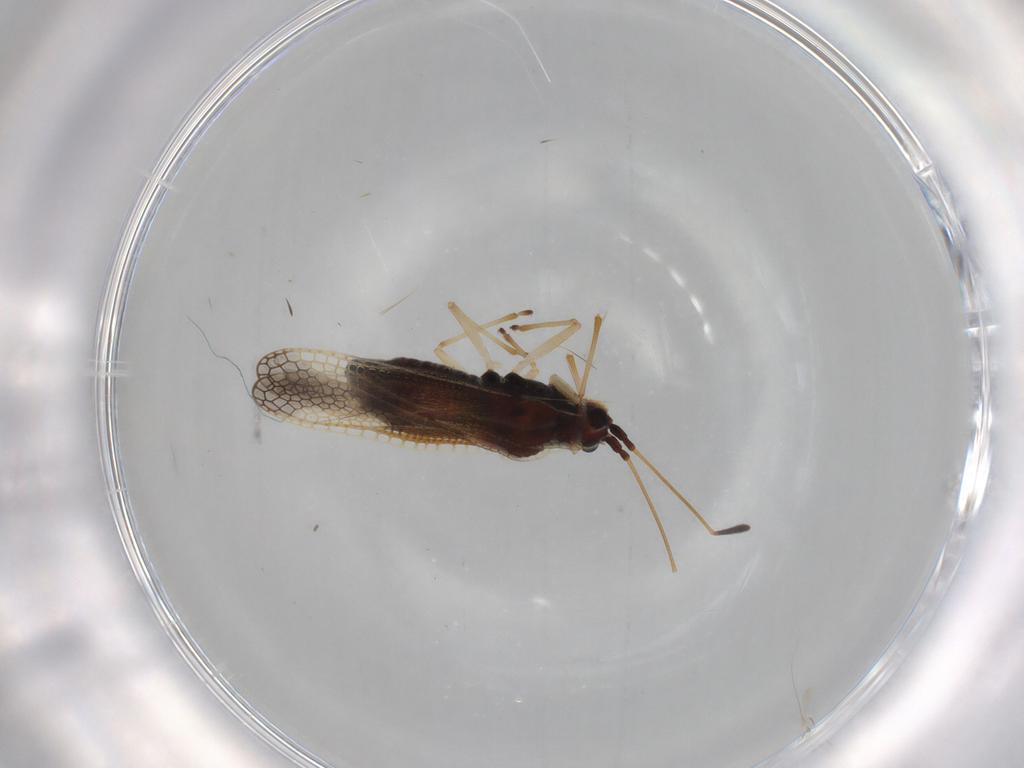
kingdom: Animalia
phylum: Arthropoda
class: Insecta
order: Hemiptera
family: Tingidae
